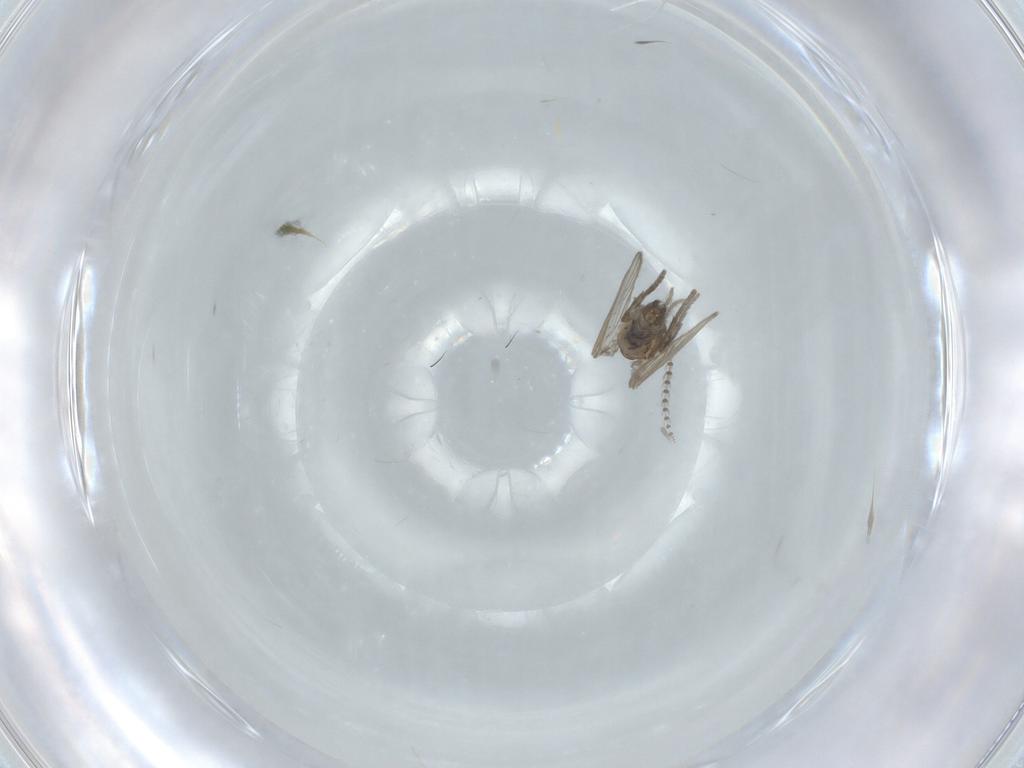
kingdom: Animalia
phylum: Arthropoda
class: Insecta
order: Diptera
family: Psychodidae
